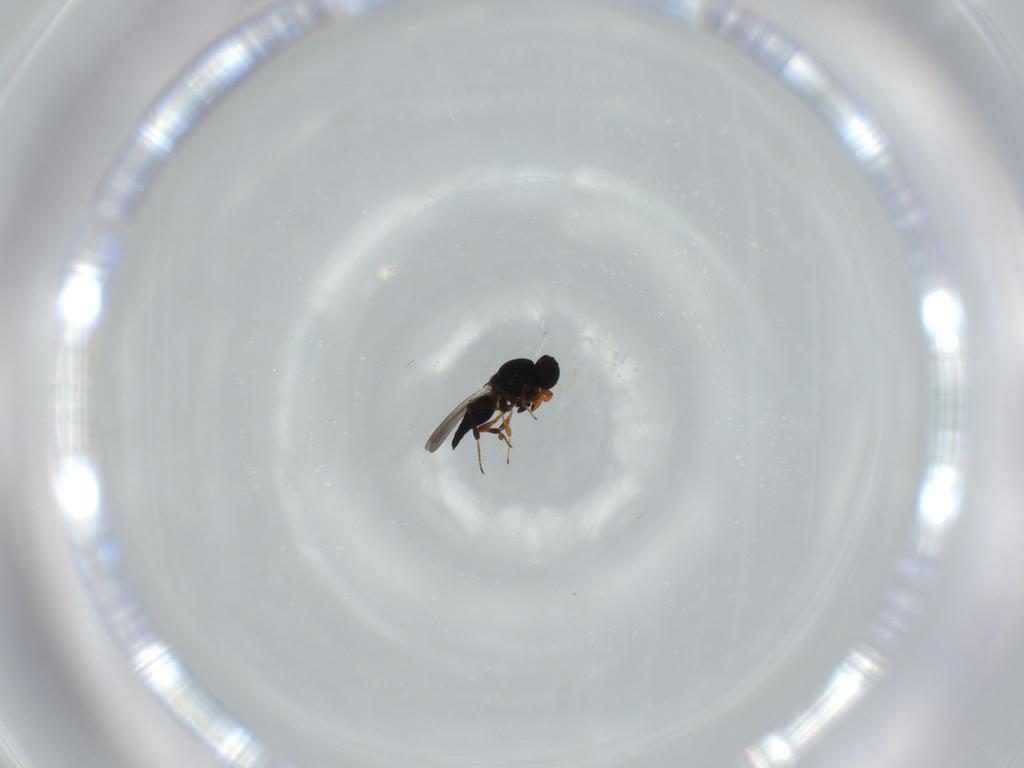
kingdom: Animalia
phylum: Arthropoda
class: Insecta
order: Hymenoptera
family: Platygastridae
